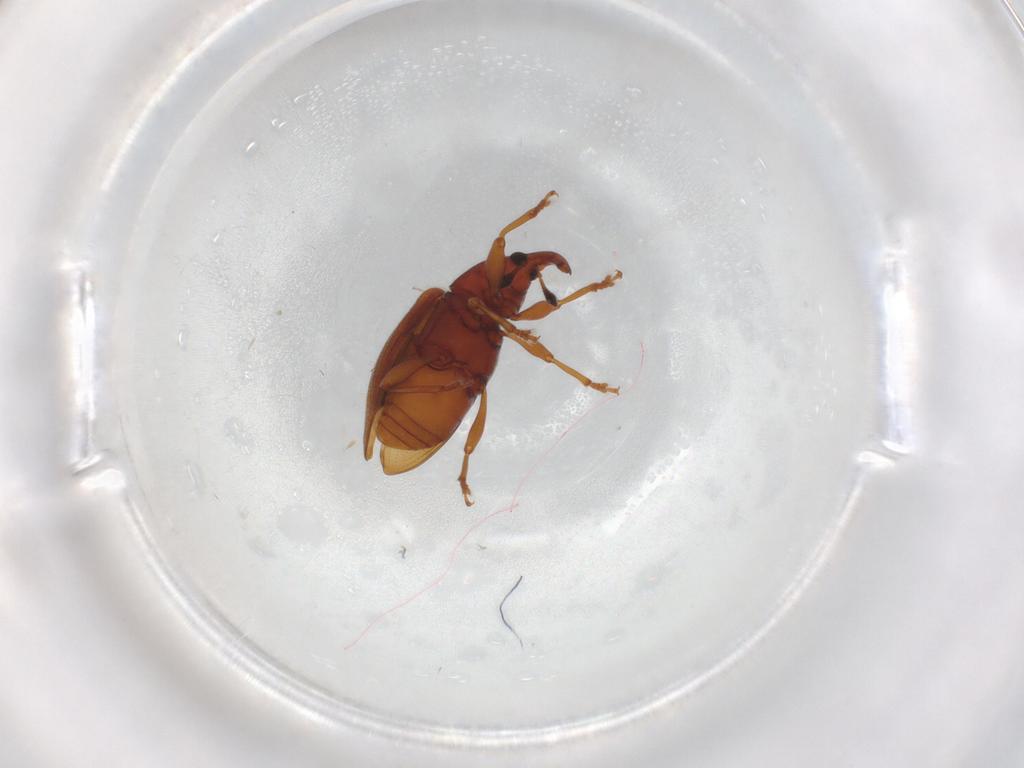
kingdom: Animalia
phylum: Arthropoda
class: Insecta
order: Coleoptera
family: Curculionidae
